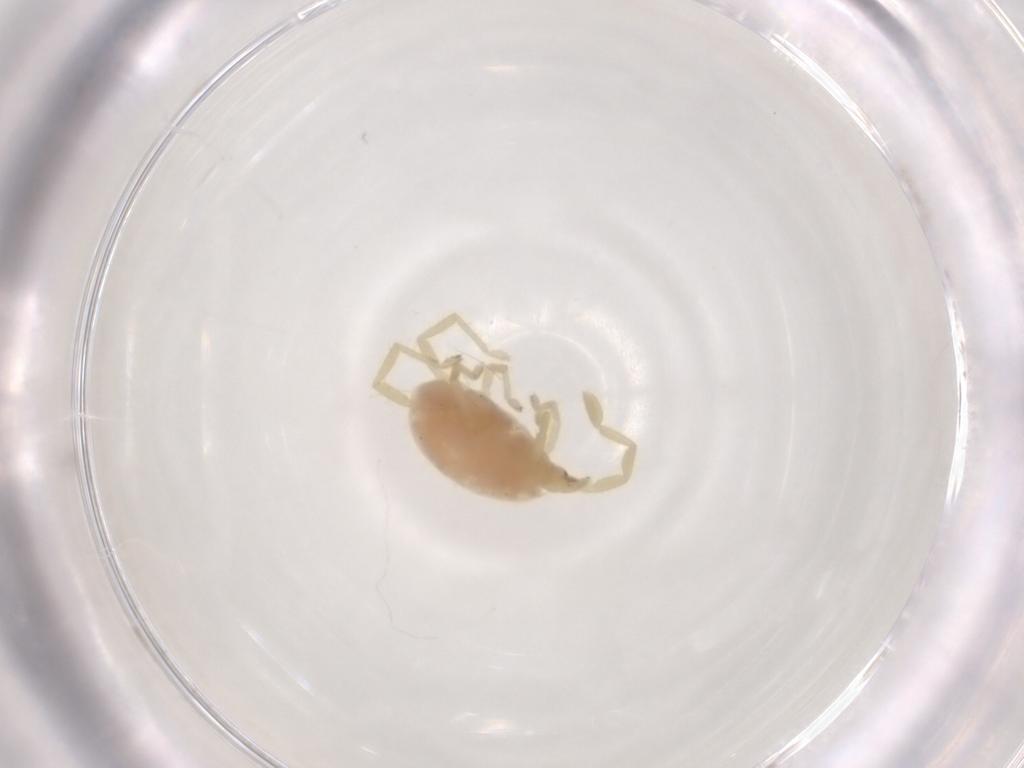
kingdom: Animalia
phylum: Arthropoda
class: Arachnida
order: Trombidiformes
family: Erythraeidae
